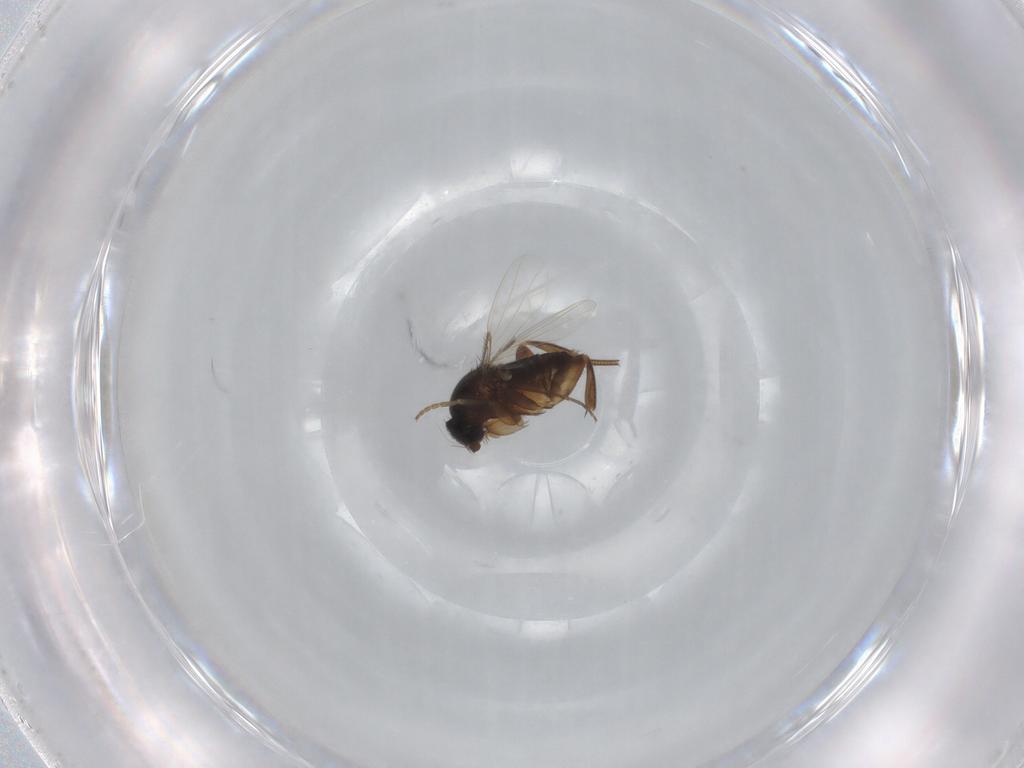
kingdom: Animalia
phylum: Arthropoda
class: Insecta
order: Diptera
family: Phoridae
